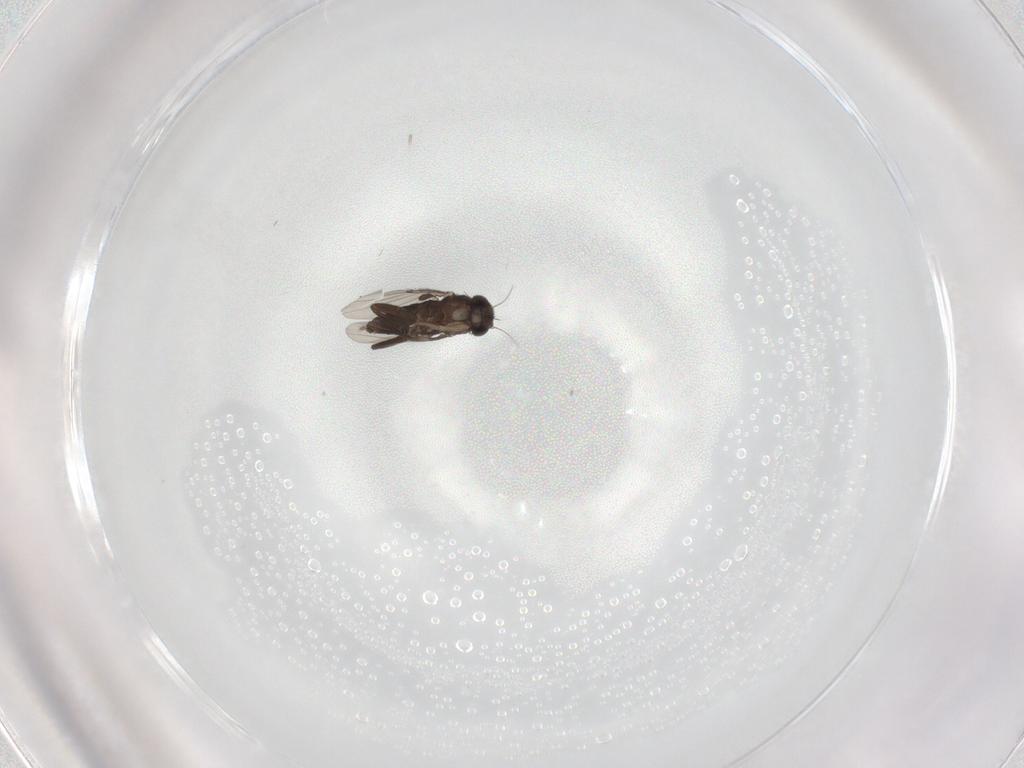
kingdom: Animalia
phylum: Arthropoda
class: Insecta
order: Diptera
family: Phoridae
